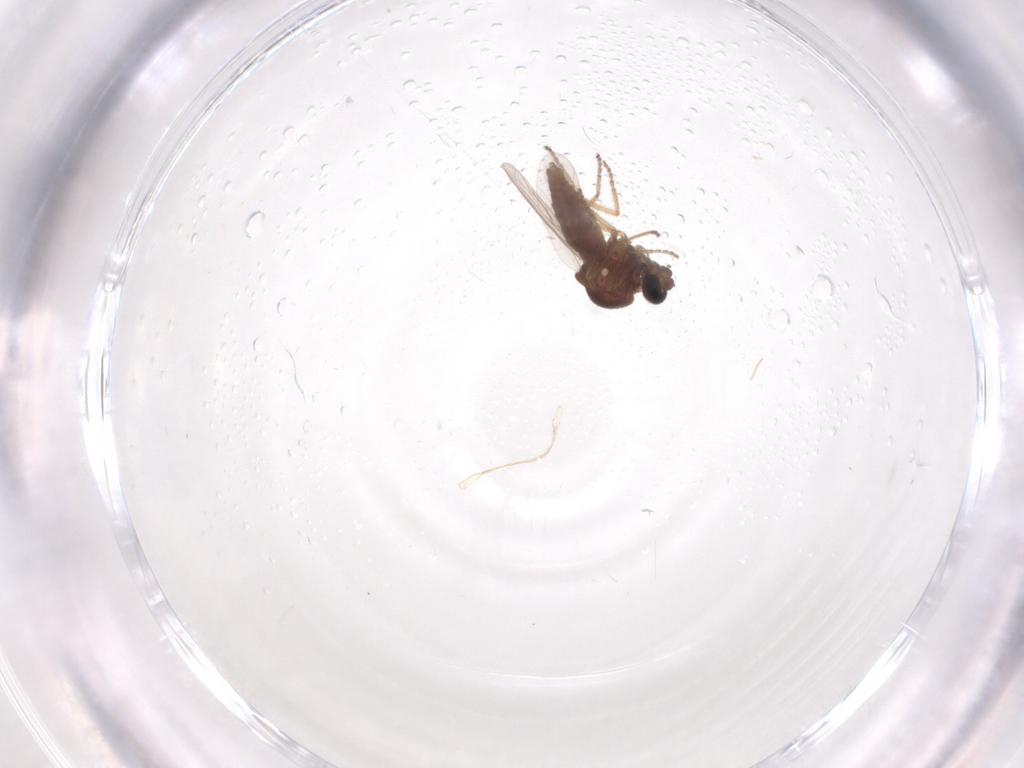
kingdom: Animalia
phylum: Arthropoda
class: Insecta
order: Diptera
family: Ceratopogonidae
